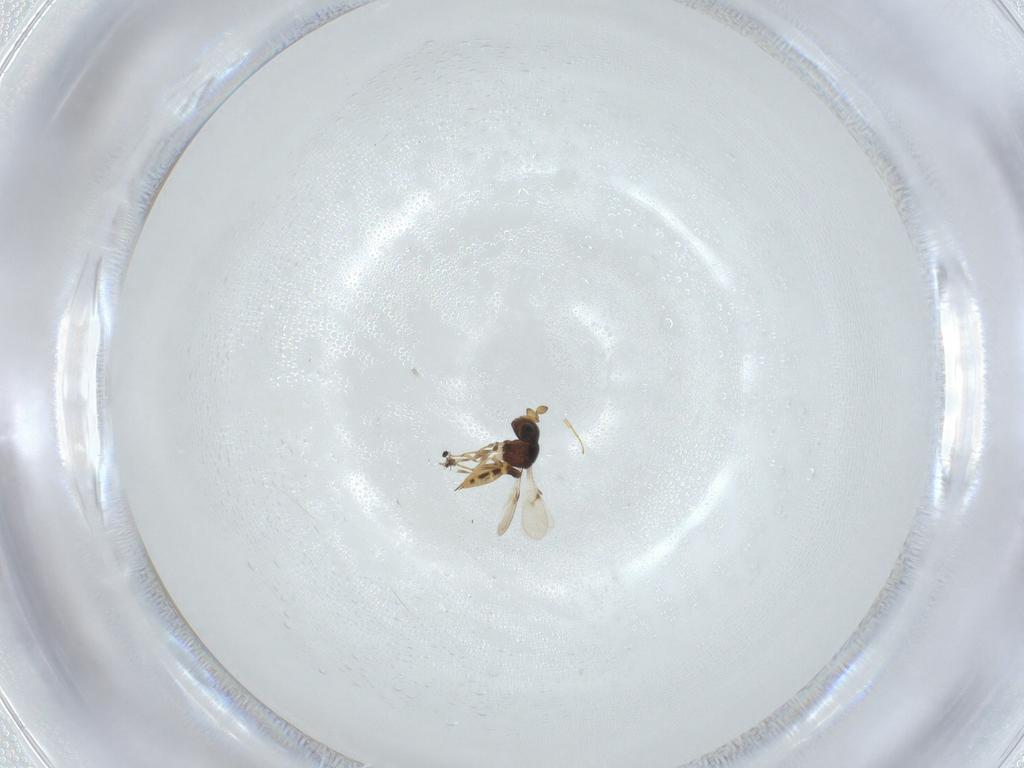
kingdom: Animalia
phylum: Arthropoda
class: Insecta
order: Hymenoptera
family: Scelionidae
